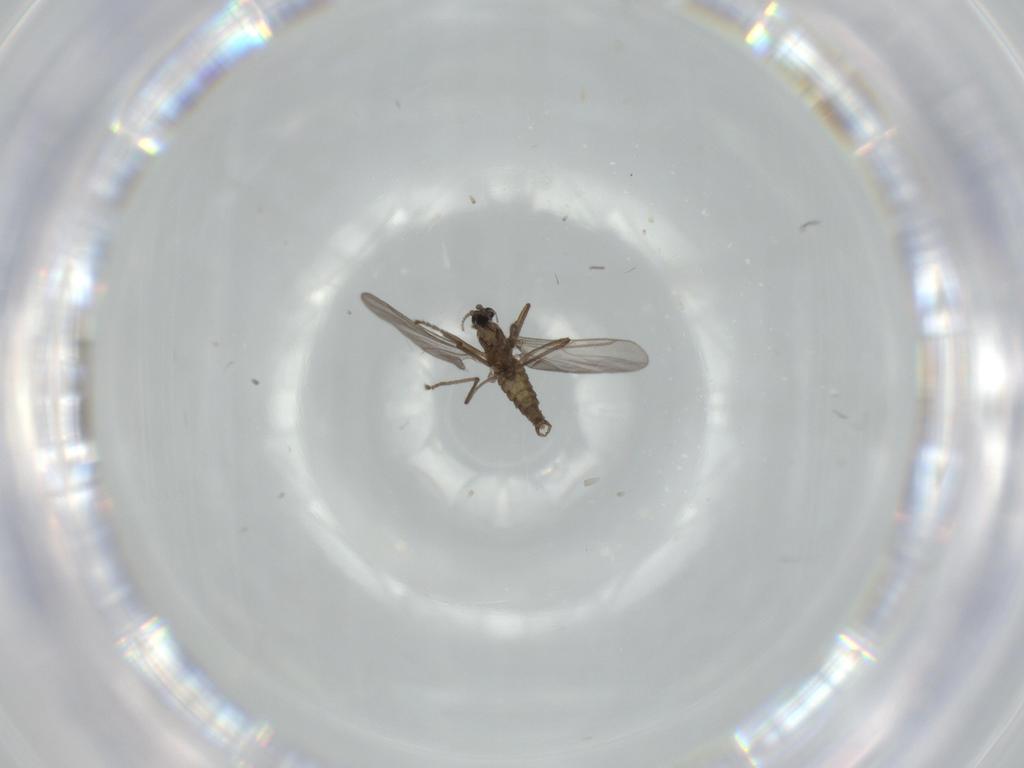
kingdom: Animalia
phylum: Arthropoda
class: Insecta
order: Diptera
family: Cecidomyiidae
